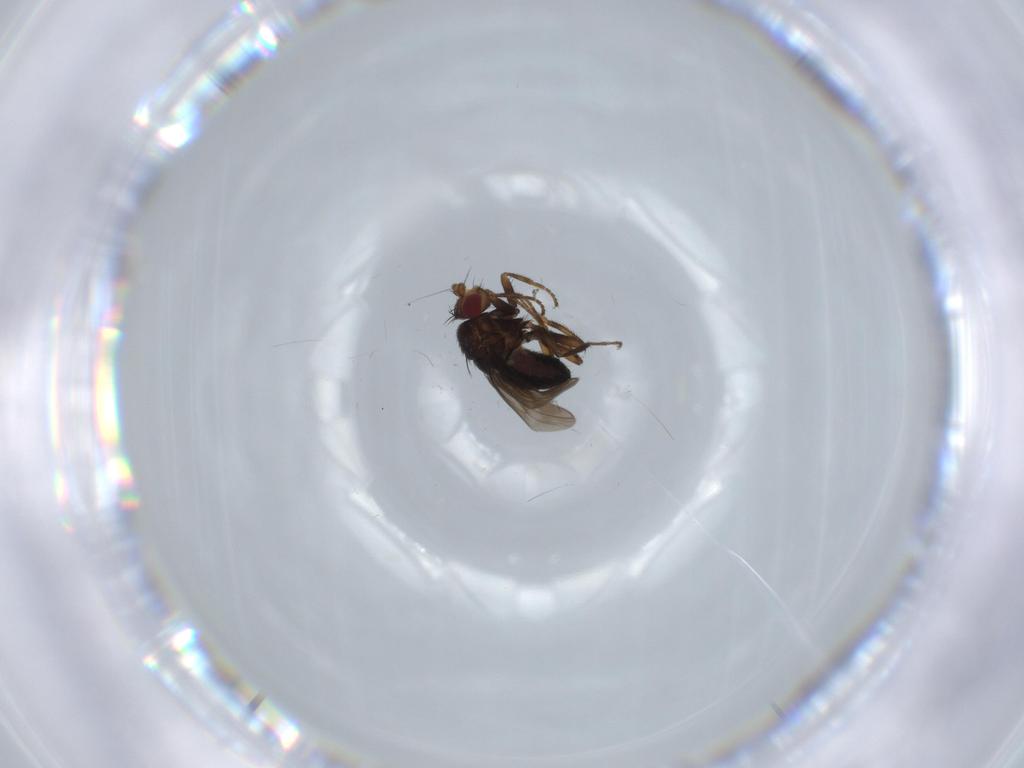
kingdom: Animalia
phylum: Arthropoda
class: Insecta
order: Diptera
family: Sphaeroceridae
